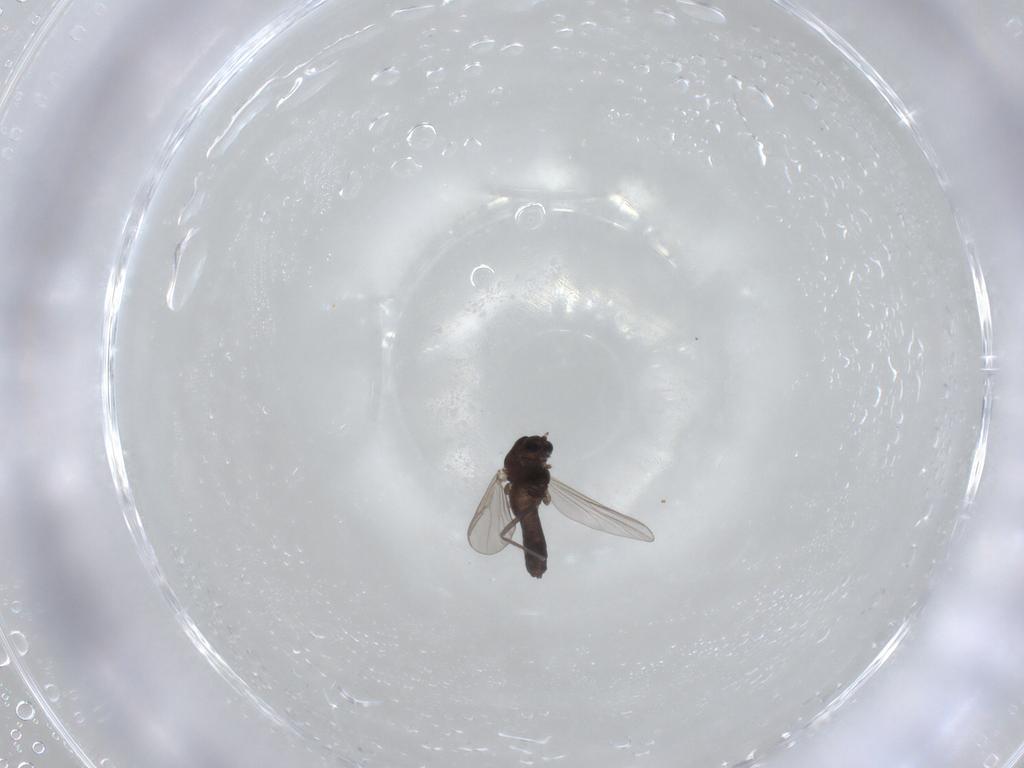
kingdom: Animalia
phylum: Arthropoda
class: Insecta
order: Diptera
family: Chironomidae
